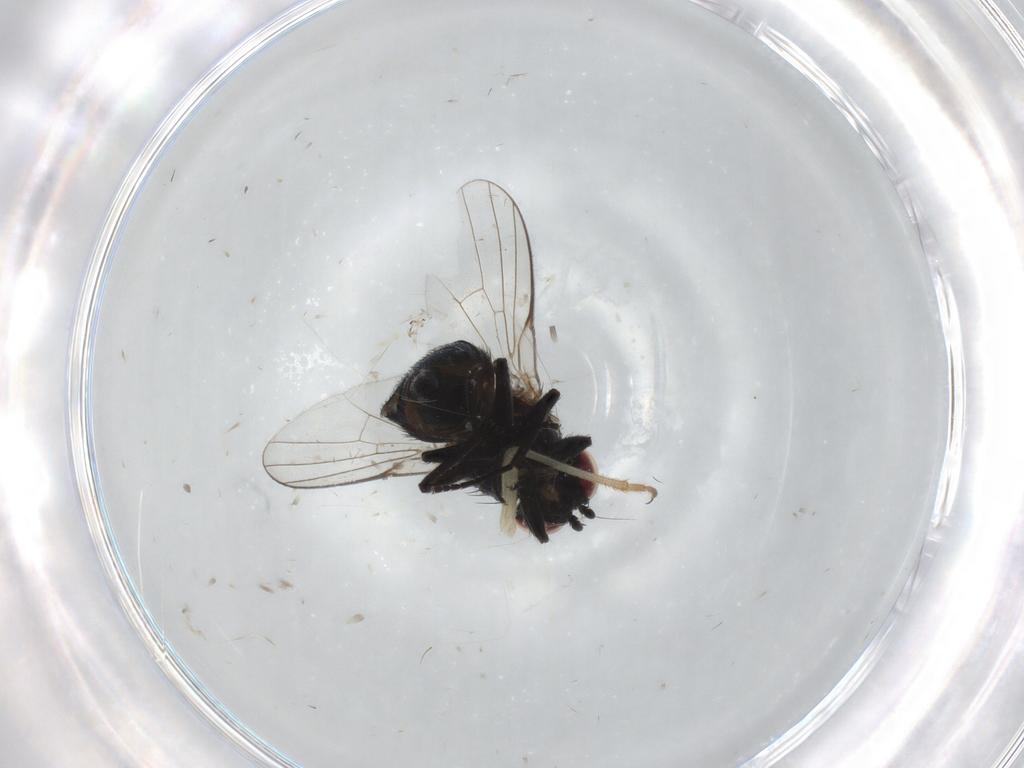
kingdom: Animalia
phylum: Arthropoda
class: Insecta
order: Diptera
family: Agromyzidae
